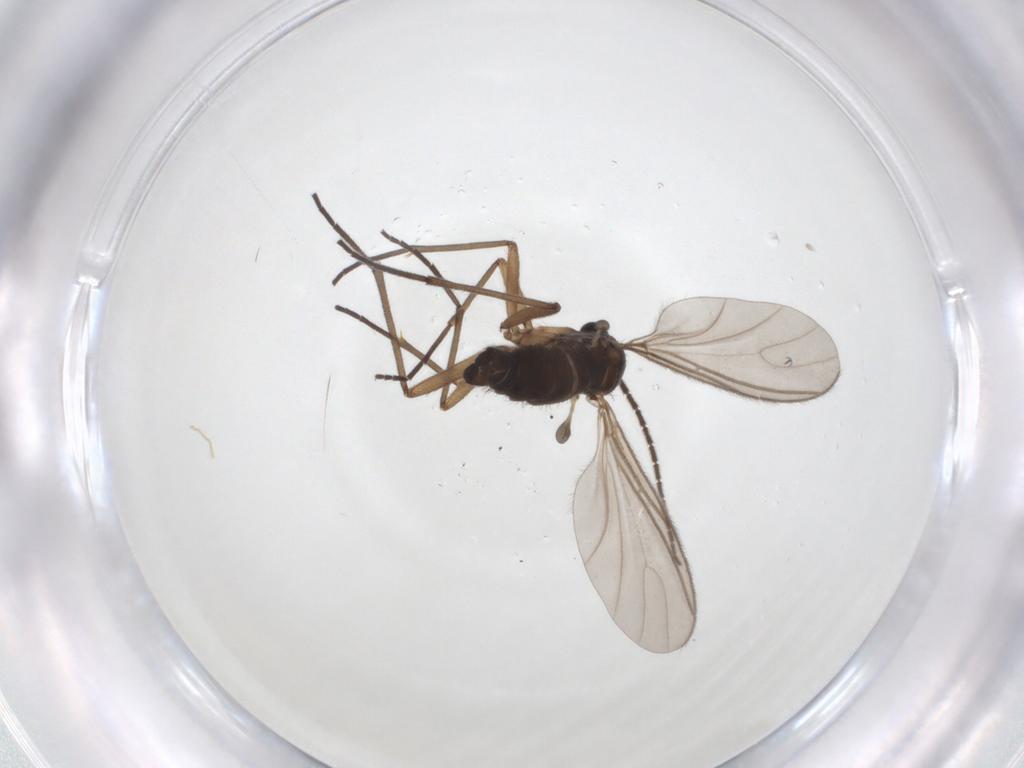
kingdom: Animalia
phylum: Arthropoda
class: Insecta
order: Diptera
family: Sciaridae
